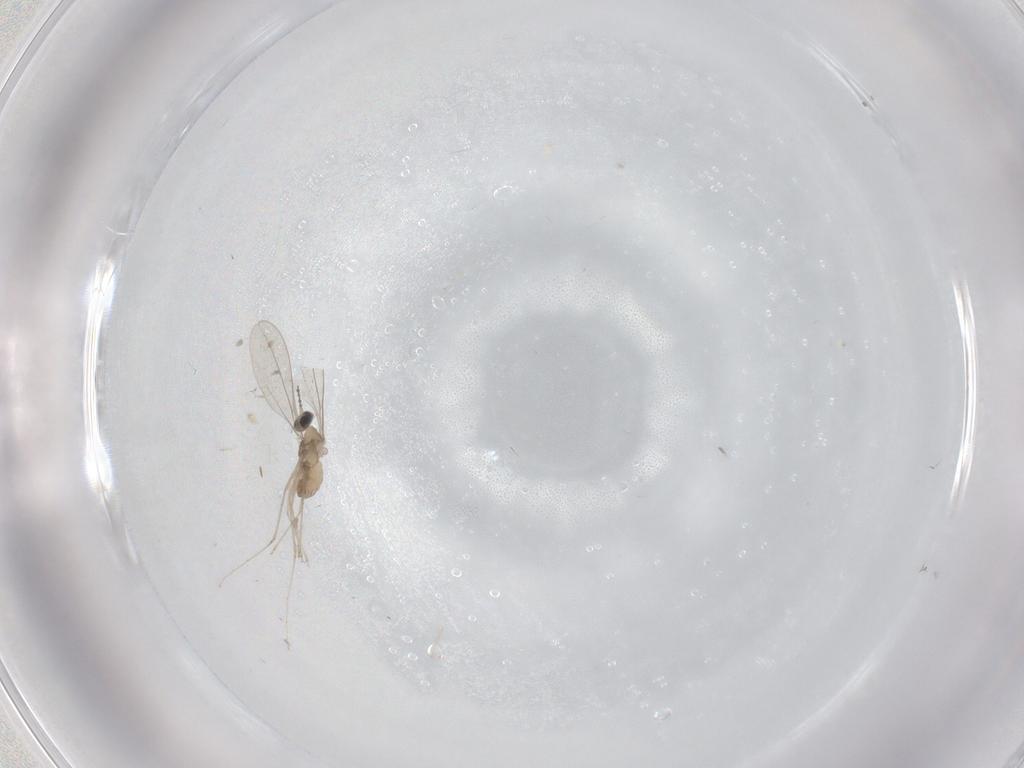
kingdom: Animalia
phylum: Arthropoda
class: Insecta
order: Diptera
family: Cecidomyiidae
